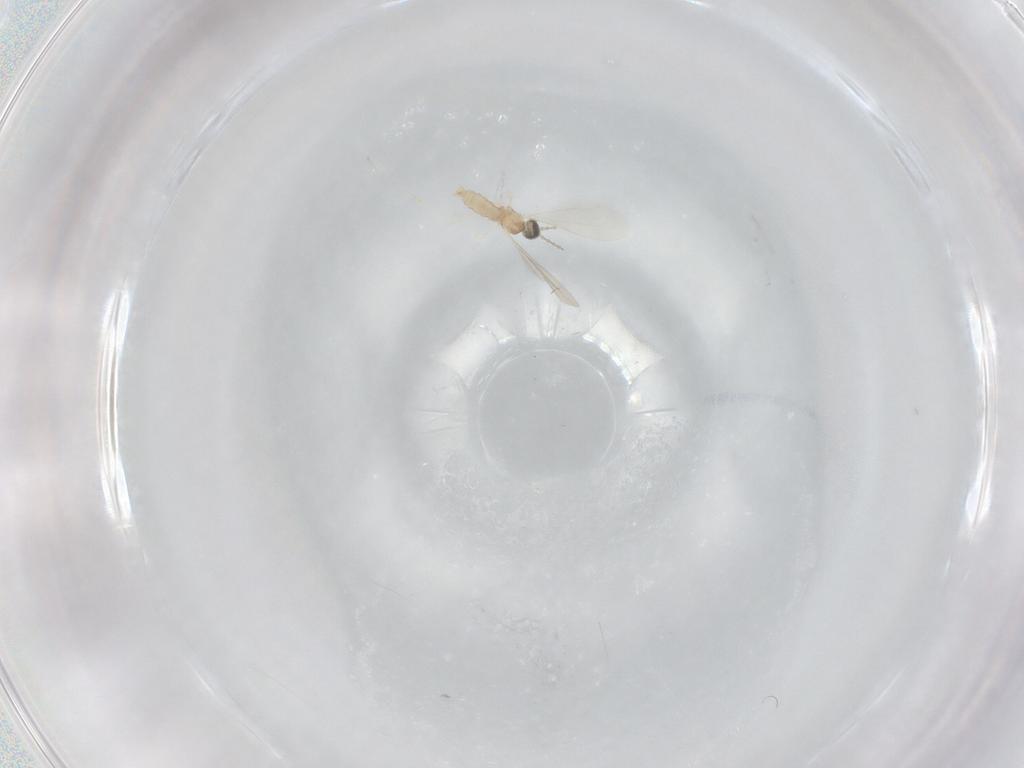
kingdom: Animalia
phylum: Arthropoda
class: Insecta
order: Diptera
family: Cecidomyiidae
